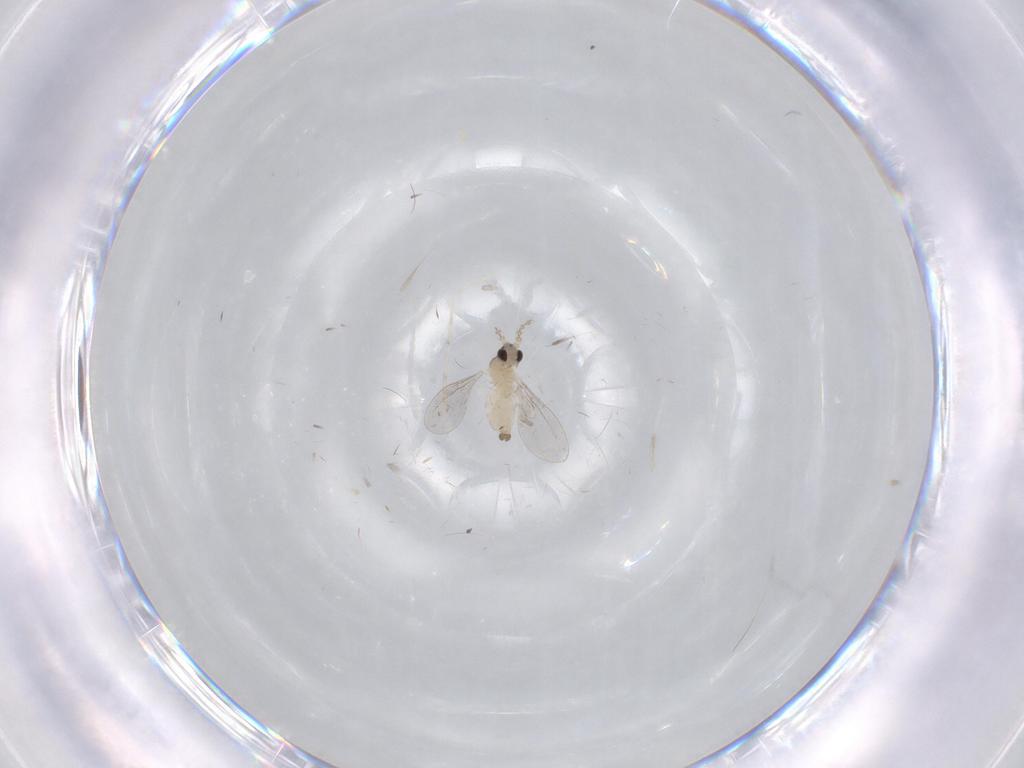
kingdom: Animalia
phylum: Arthropoda
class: Insecta
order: Diptera
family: Cecidomyiidae
